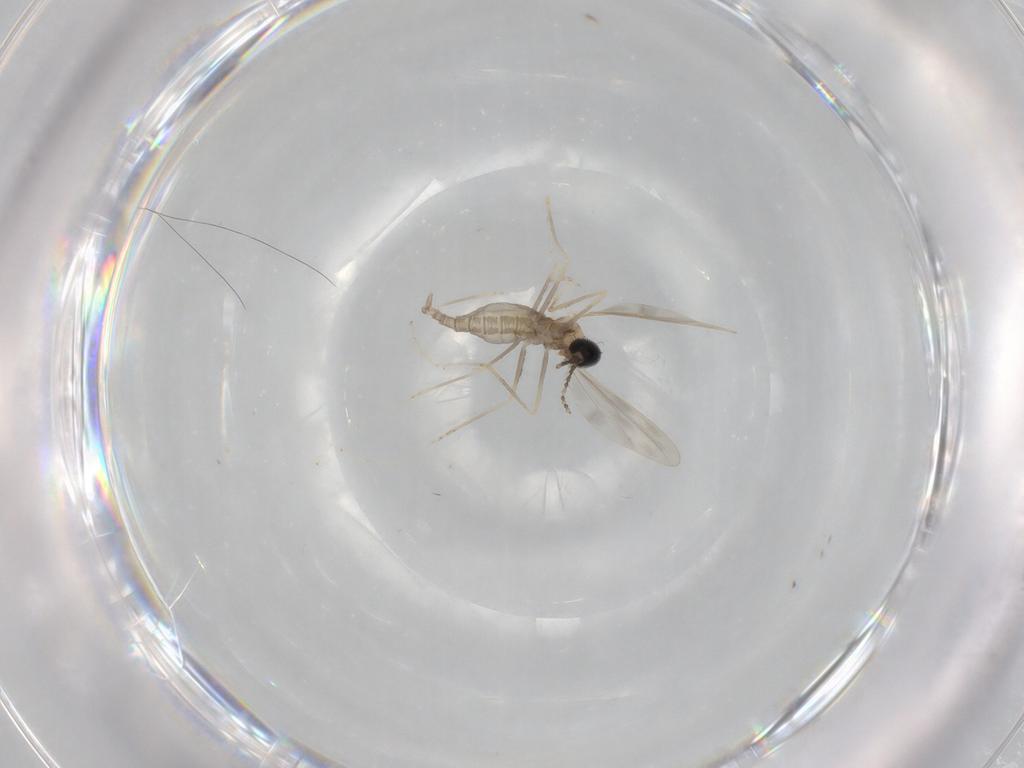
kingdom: Animalia
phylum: Arthropoda
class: Insecta
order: Diptera
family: Cecidomyiidae
